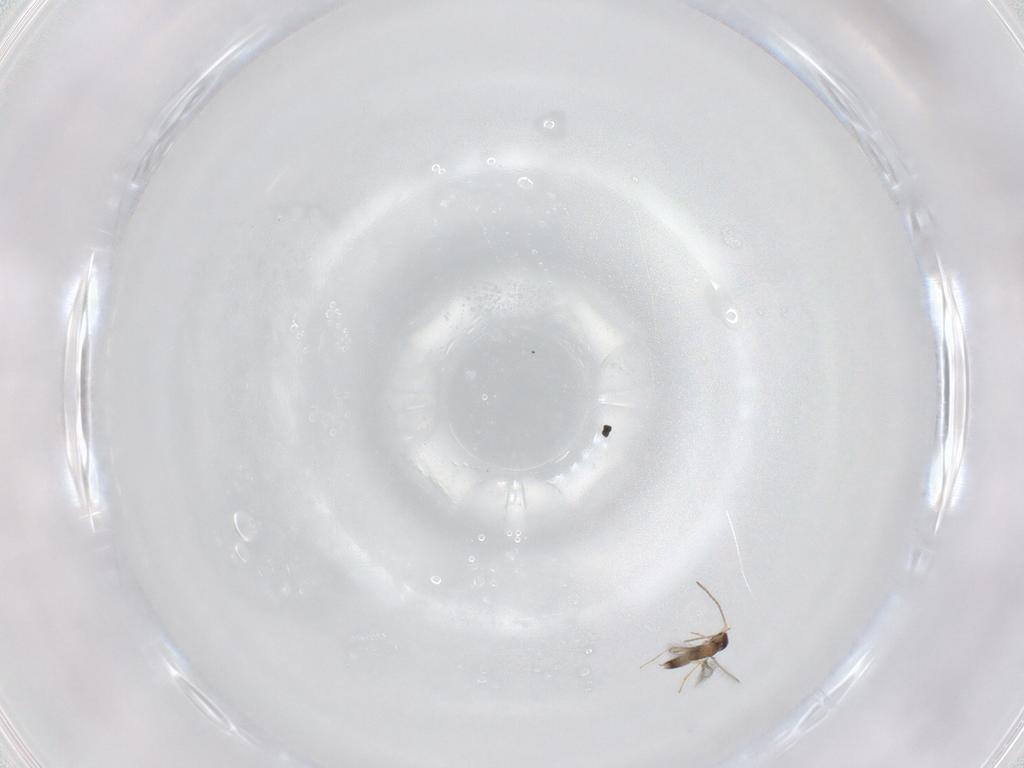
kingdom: Animalia
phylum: Arthropoda
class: Insecta
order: Hymenoptera
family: Mymaridae
